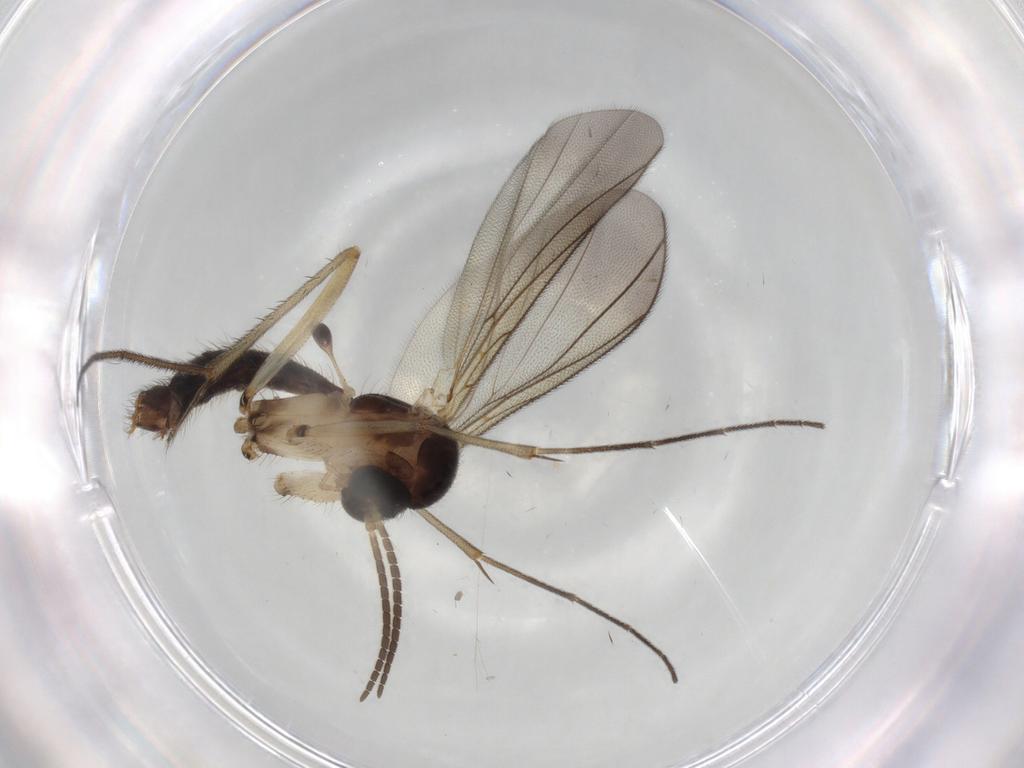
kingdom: Animalia
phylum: Arthropoda
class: Insecta
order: Diptera
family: Mycetophilidae
